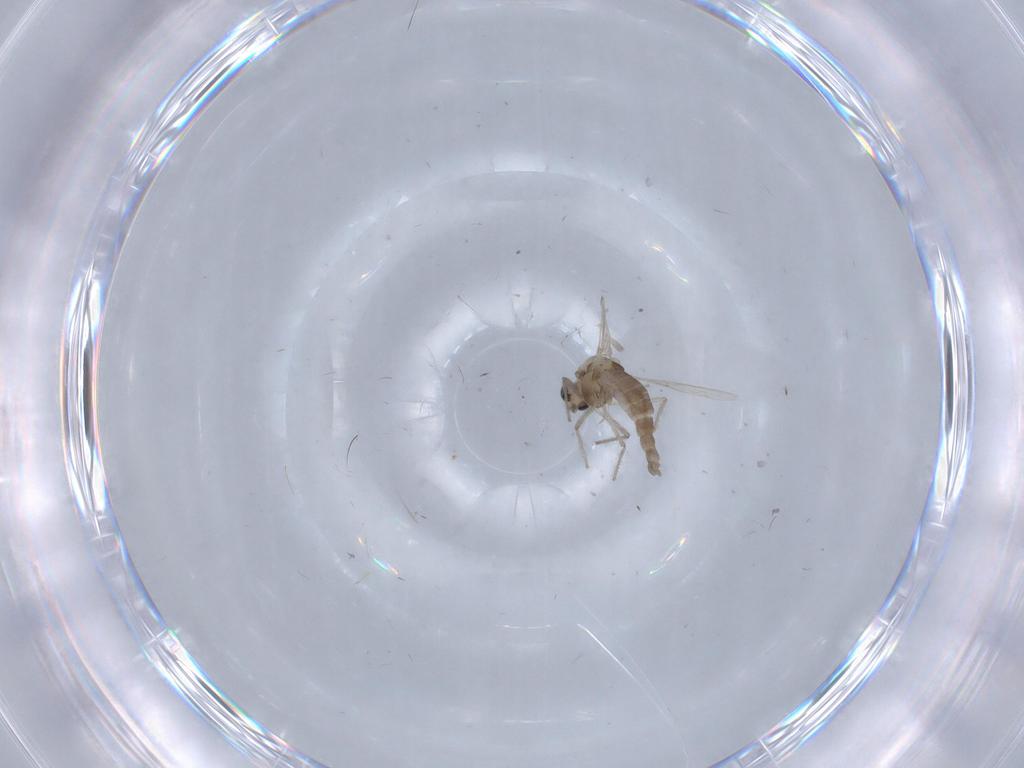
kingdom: Animalia
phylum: Arthropoda
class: Insecta
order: Diptera
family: Chironomidae
